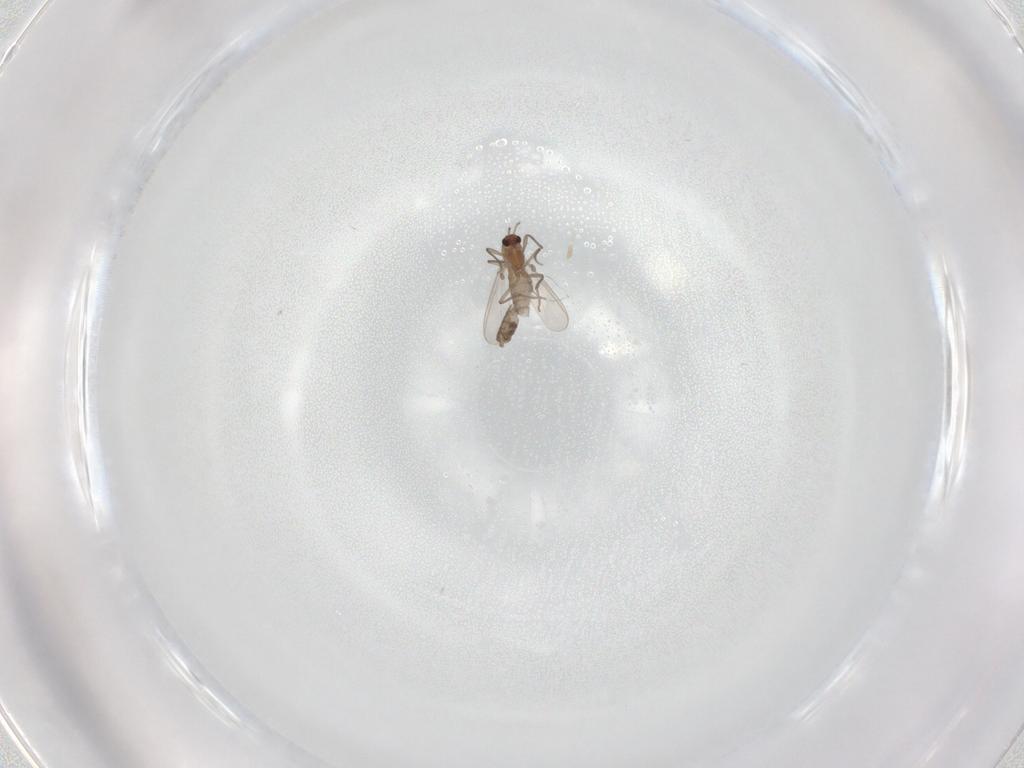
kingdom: Animalia
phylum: Arthropoda
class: Insecta
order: Diptera
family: Chironomidae
